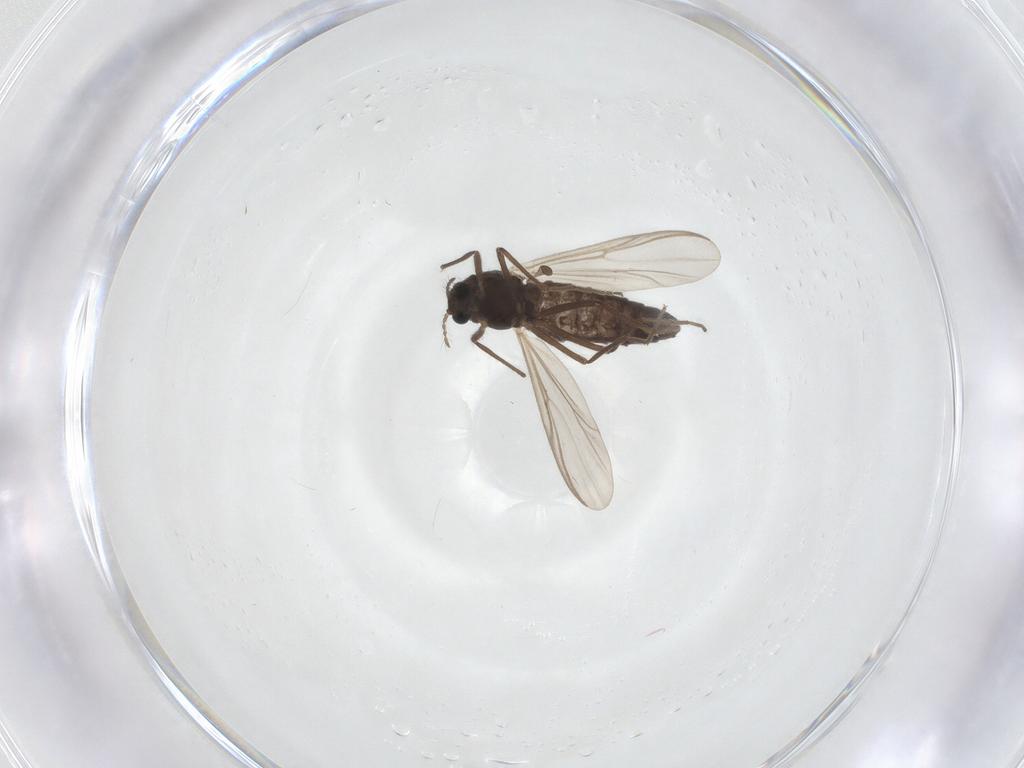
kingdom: Animalia
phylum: Arthropoda
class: Insecta
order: Diptera
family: Chironomidae
